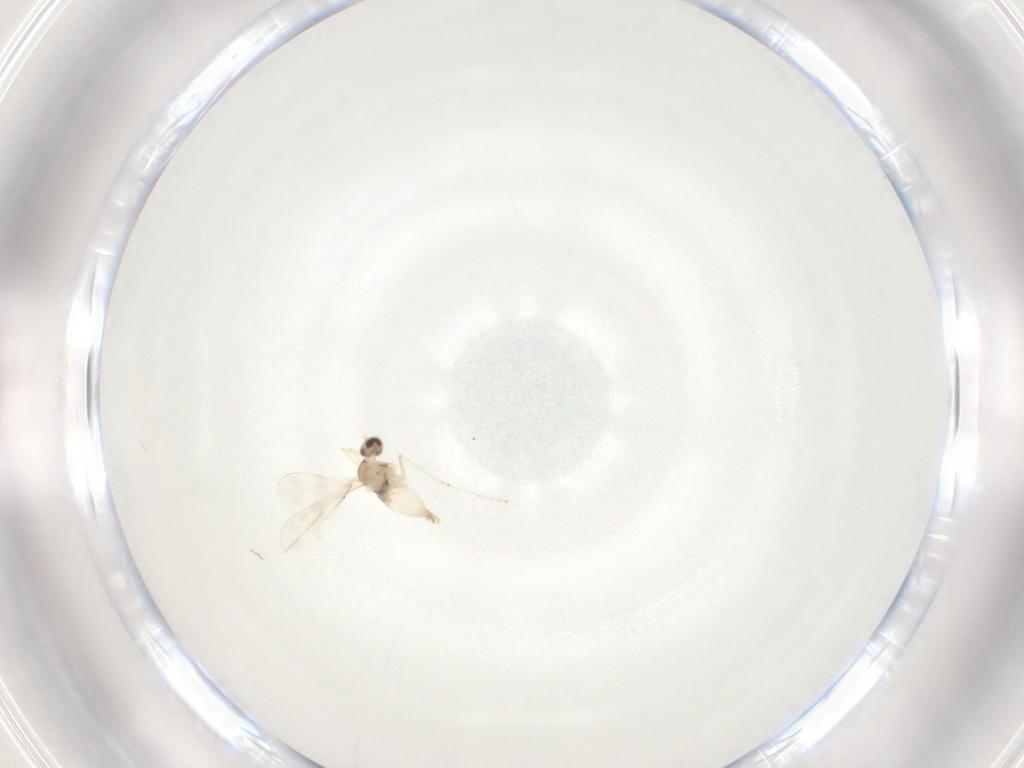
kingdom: Animalia
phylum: Arthropoda
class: Insecta
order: Diptera
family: Cecidomyiidae
